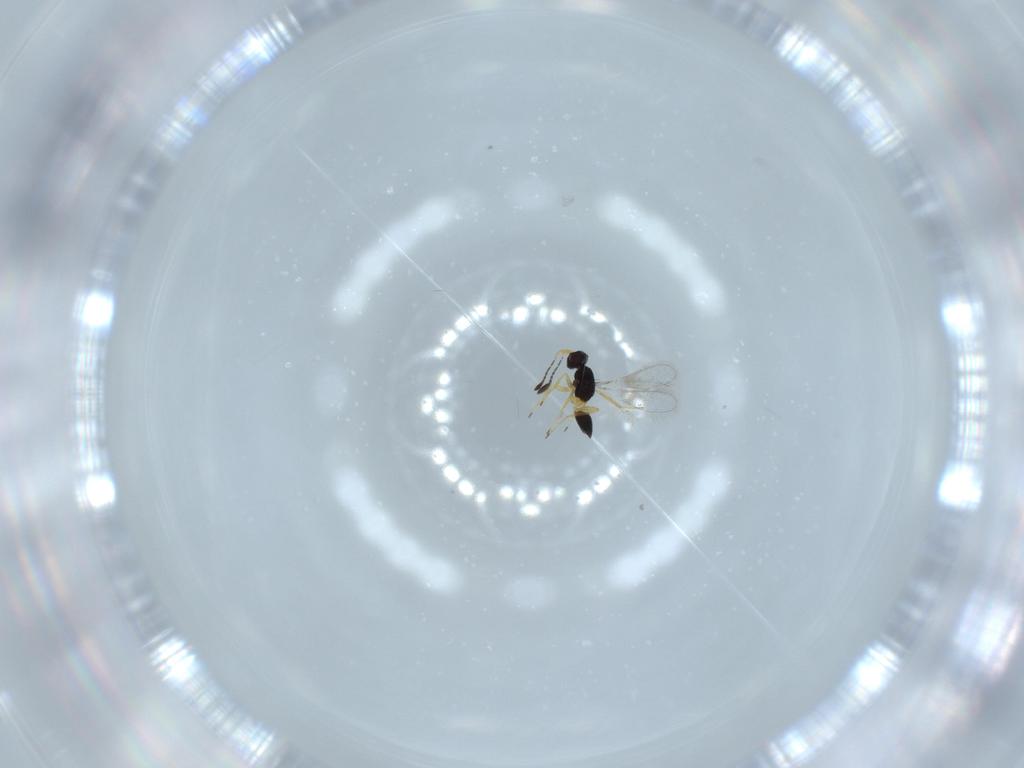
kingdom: Animalia
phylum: Arthropoda
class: Insecta
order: Hymenoptera
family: Mymaridae
